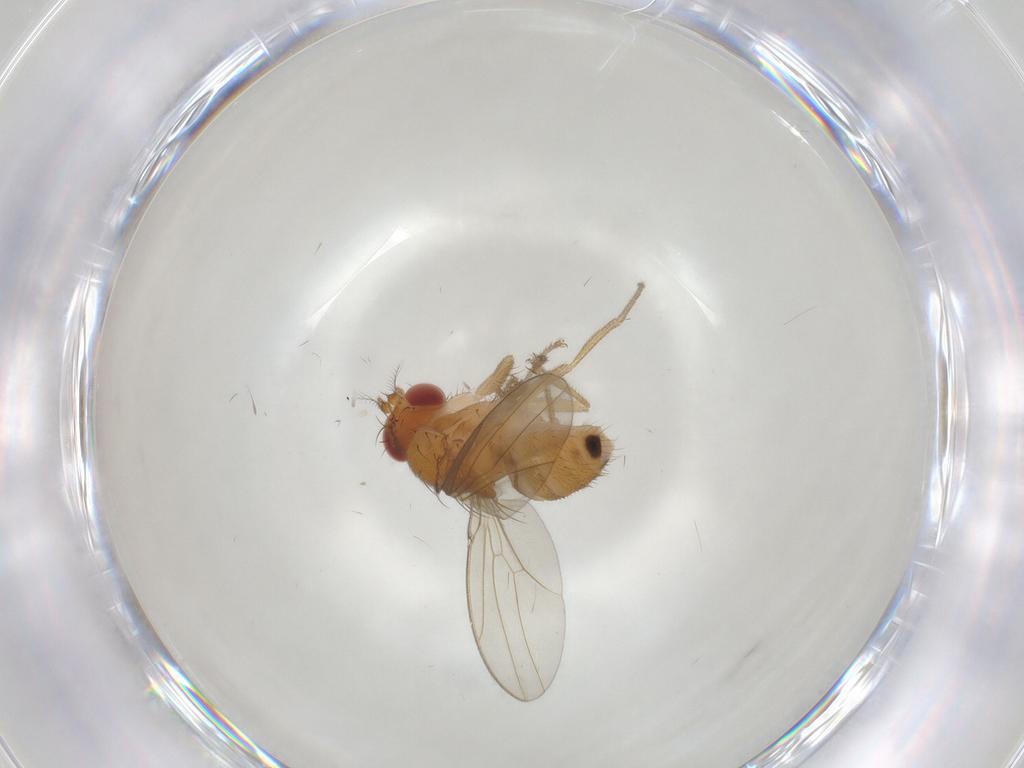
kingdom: Animalia
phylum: Arthropoda
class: Insecta
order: Diptera
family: Drosophilidae
